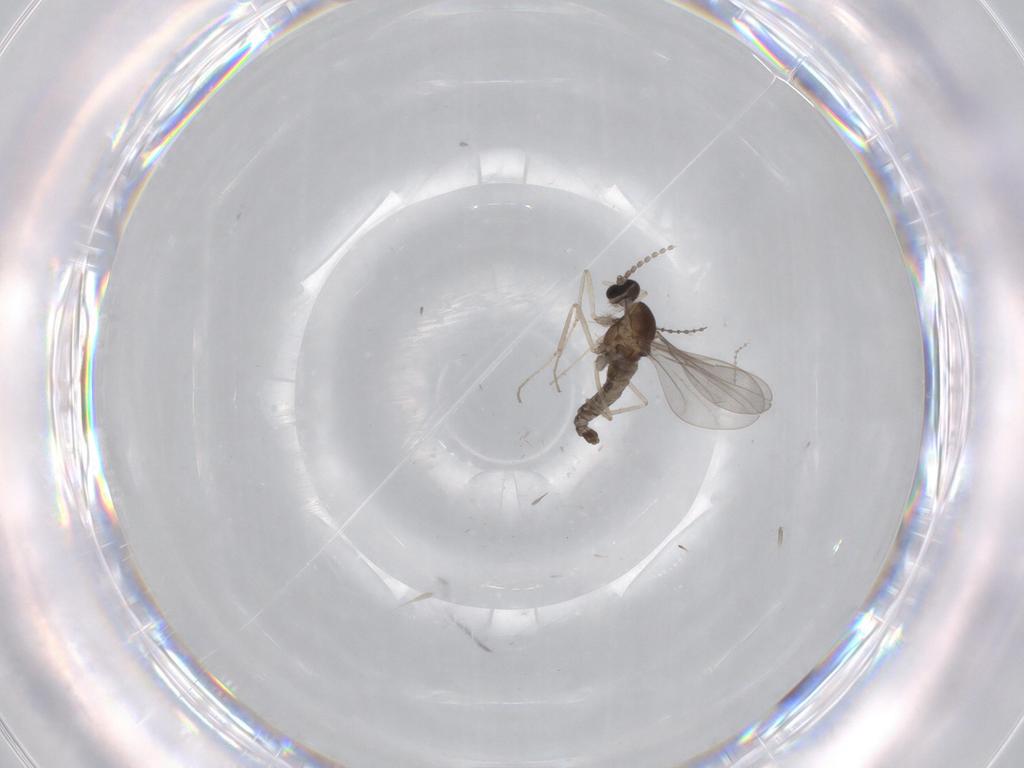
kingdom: Animalia
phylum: Arthropoda
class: Insecta
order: Diptera
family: Cecidomyiidae
